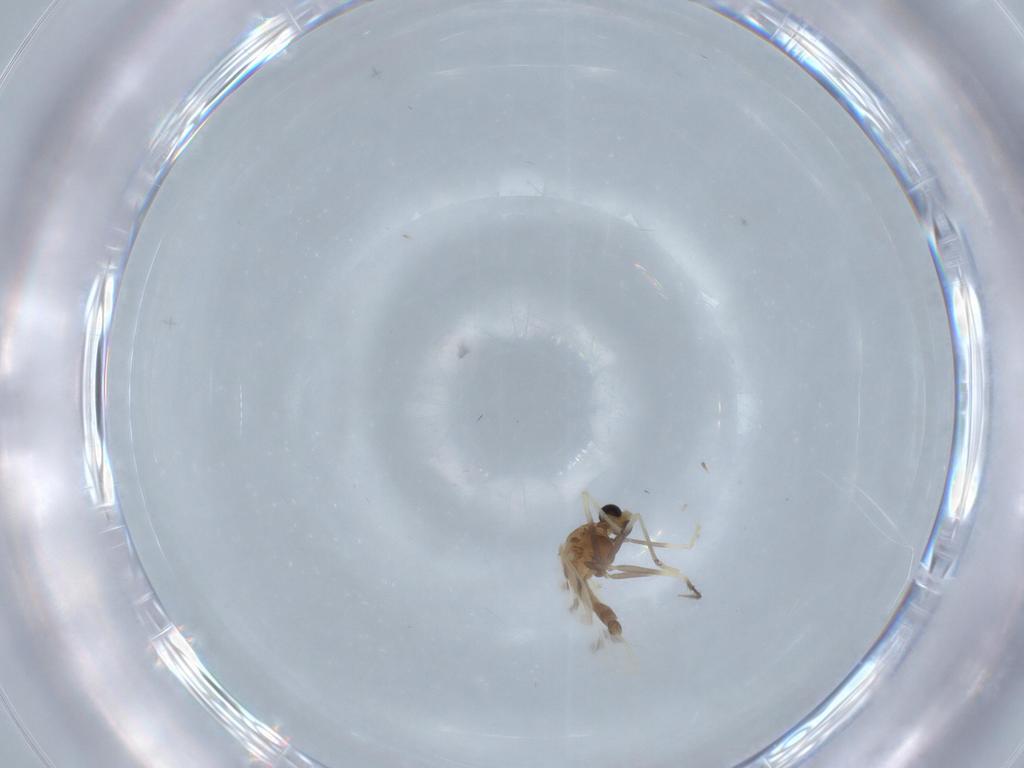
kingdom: Animalia
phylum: Arthropoda
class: Insecta
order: Diptera
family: Chironomidae
